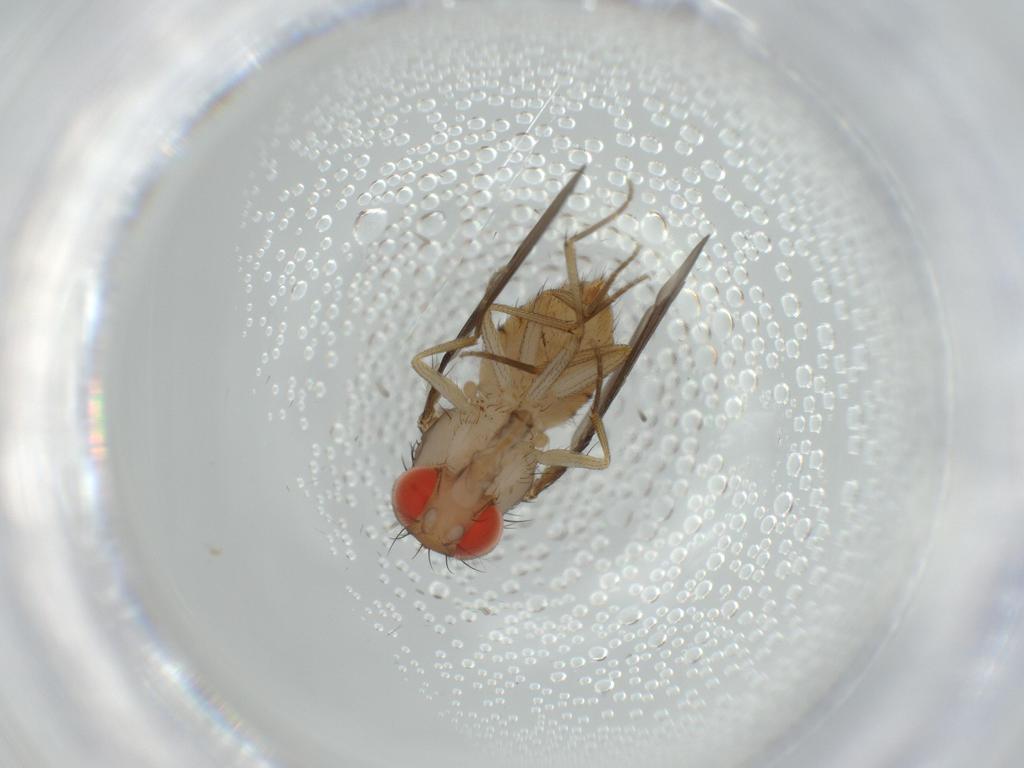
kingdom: Animalia
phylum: Arthropoda
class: Insecta
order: Diptera
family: Drosophilidae
